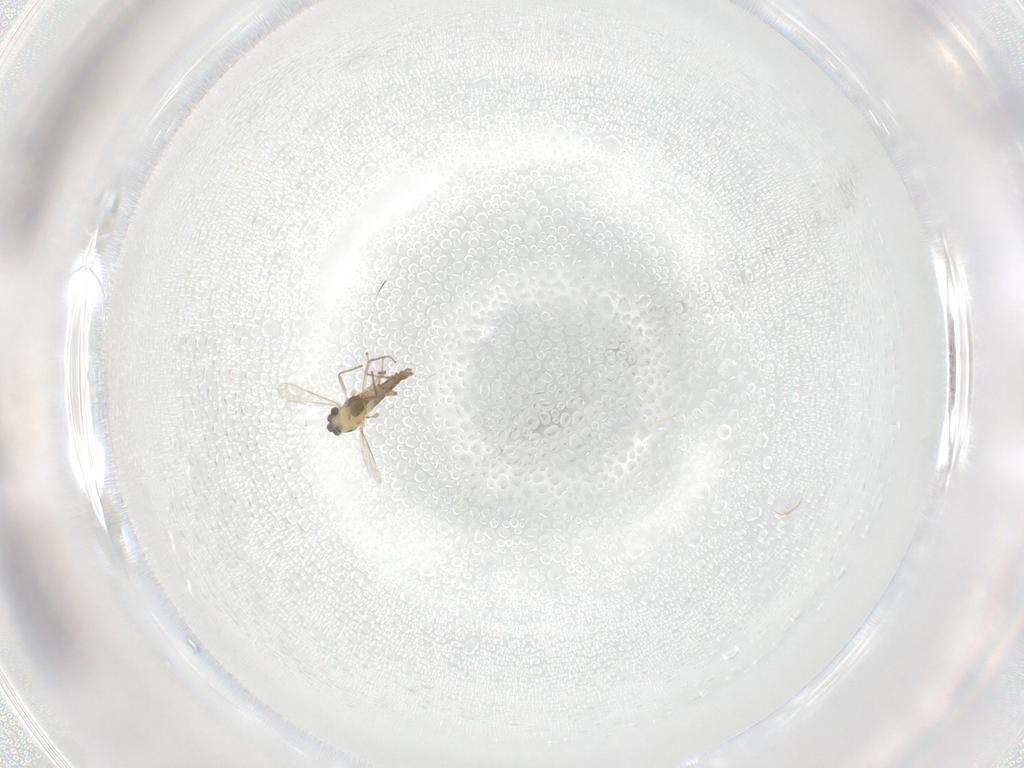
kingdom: Animalia
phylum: Arthropoda
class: Insecta
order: Diptera
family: Chironomidae
